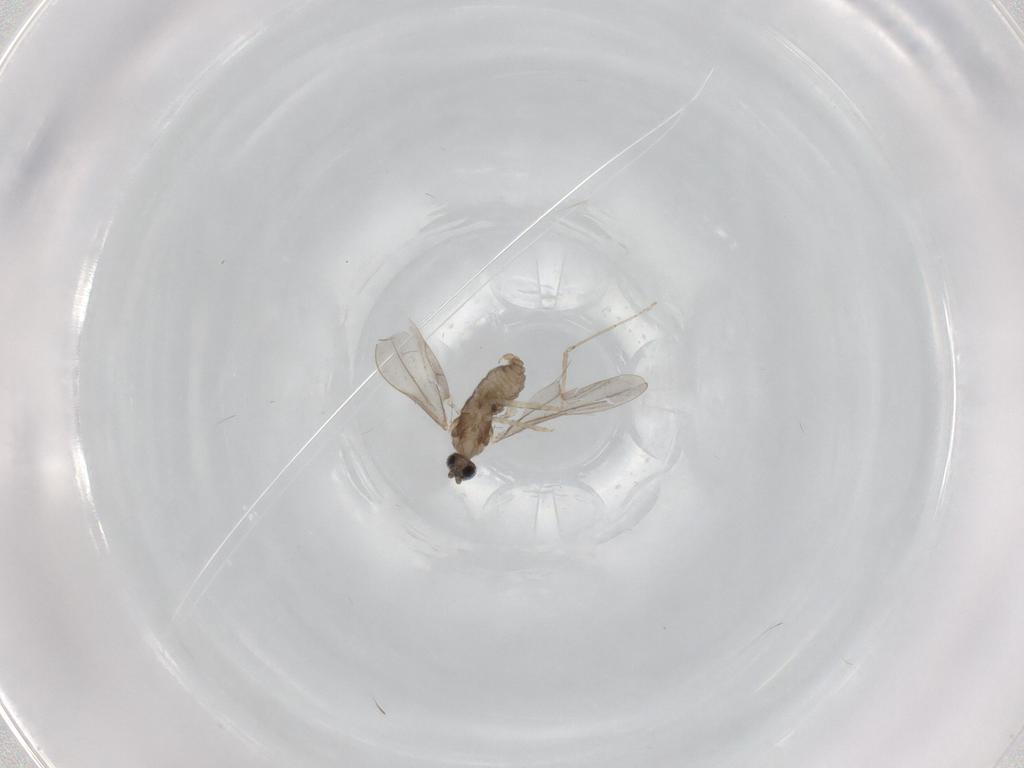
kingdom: Animalia
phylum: Arthropoda
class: Insecta
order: Diptera
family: Cecidomyiidae
